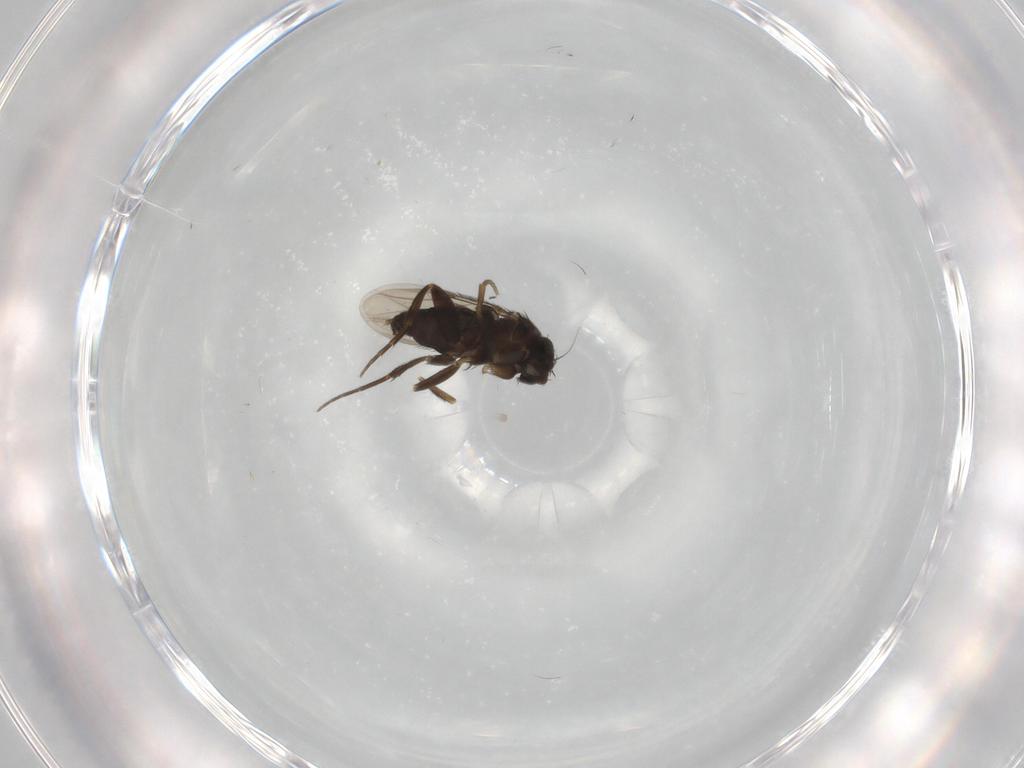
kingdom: Animalia
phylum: Arthropoda
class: Insecta
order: Diptera
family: Phoridae
